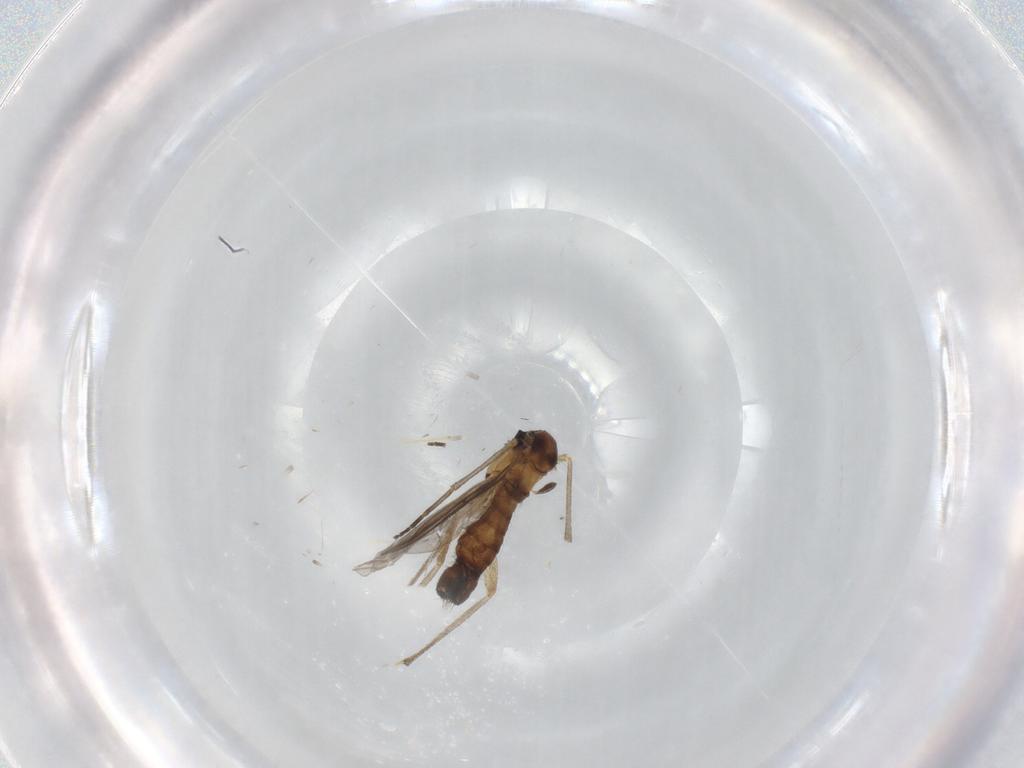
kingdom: Animalia
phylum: Arthropoda
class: Insecta
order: Diptera
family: Sciaridae
